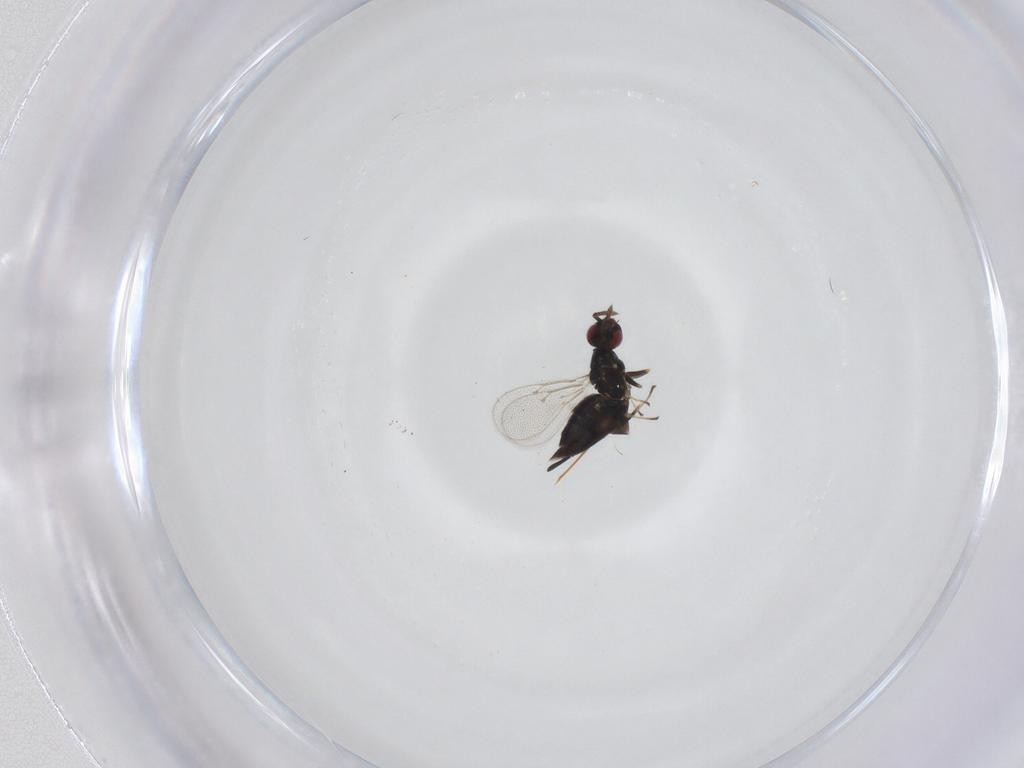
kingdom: Animalia
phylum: Arthropoda
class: Insecta
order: Hymenoptera
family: Eulophidae
